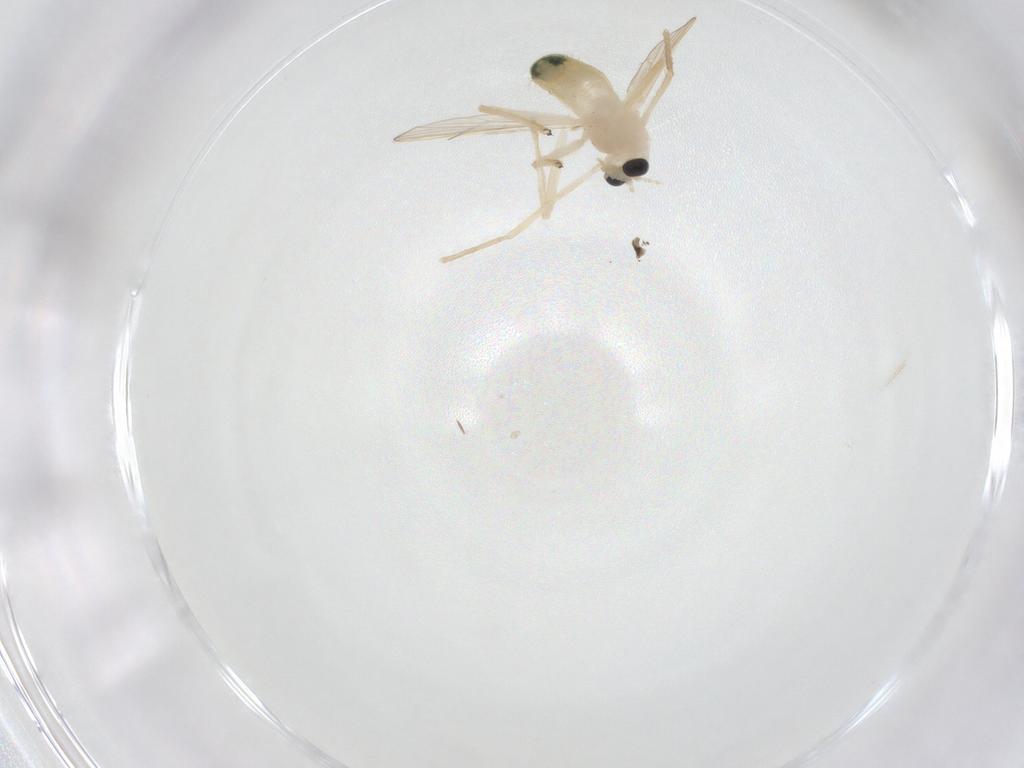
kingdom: Animalia
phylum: Arthropoda
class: Insecta
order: Diptera
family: Chironomidae
